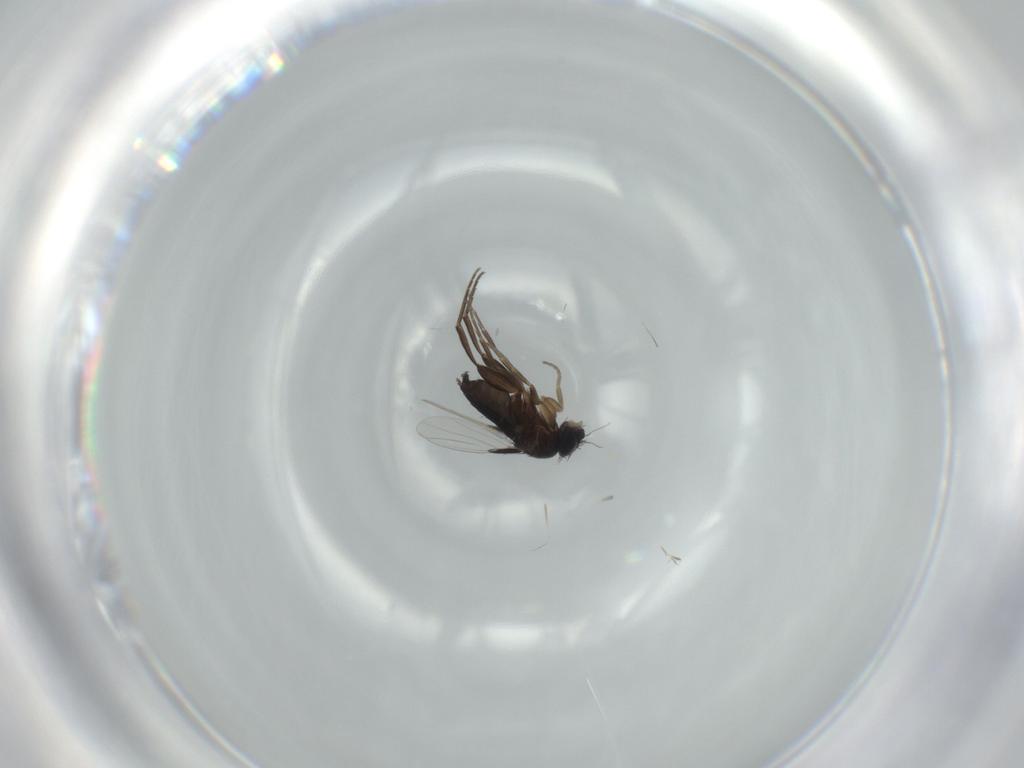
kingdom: Animalia
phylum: Arthropoda
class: Insecta
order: Diptera
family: Phoridae
